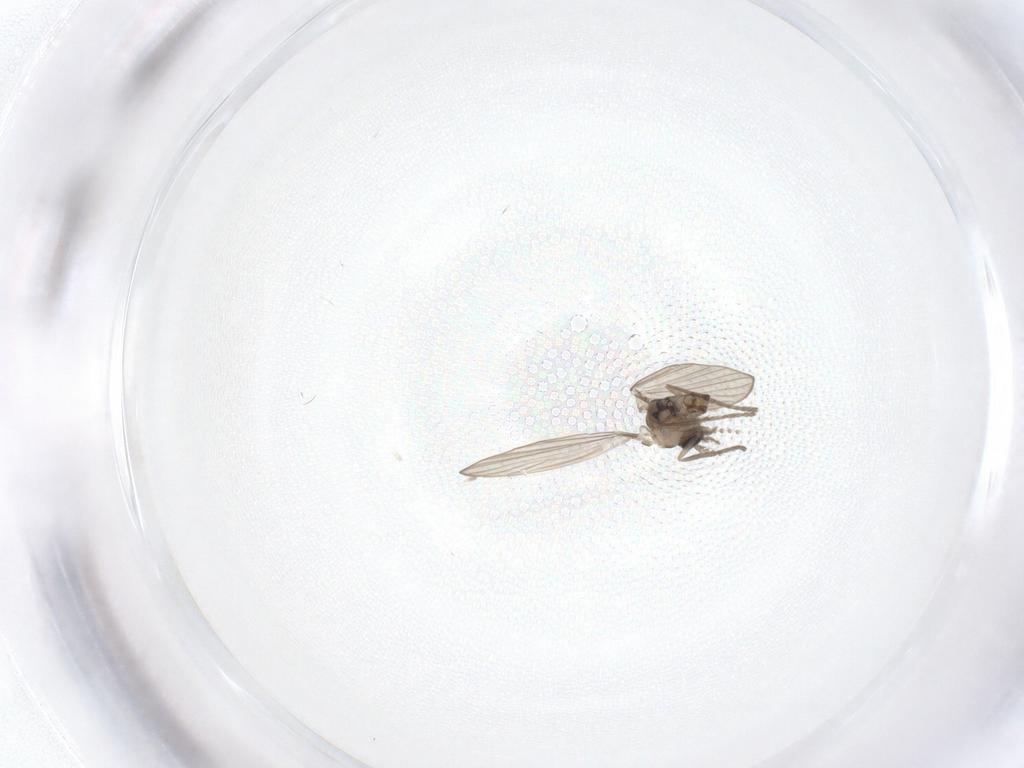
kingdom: Animalia
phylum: Arthropoda
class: Insecta
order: Diptera
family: Psychodidae
